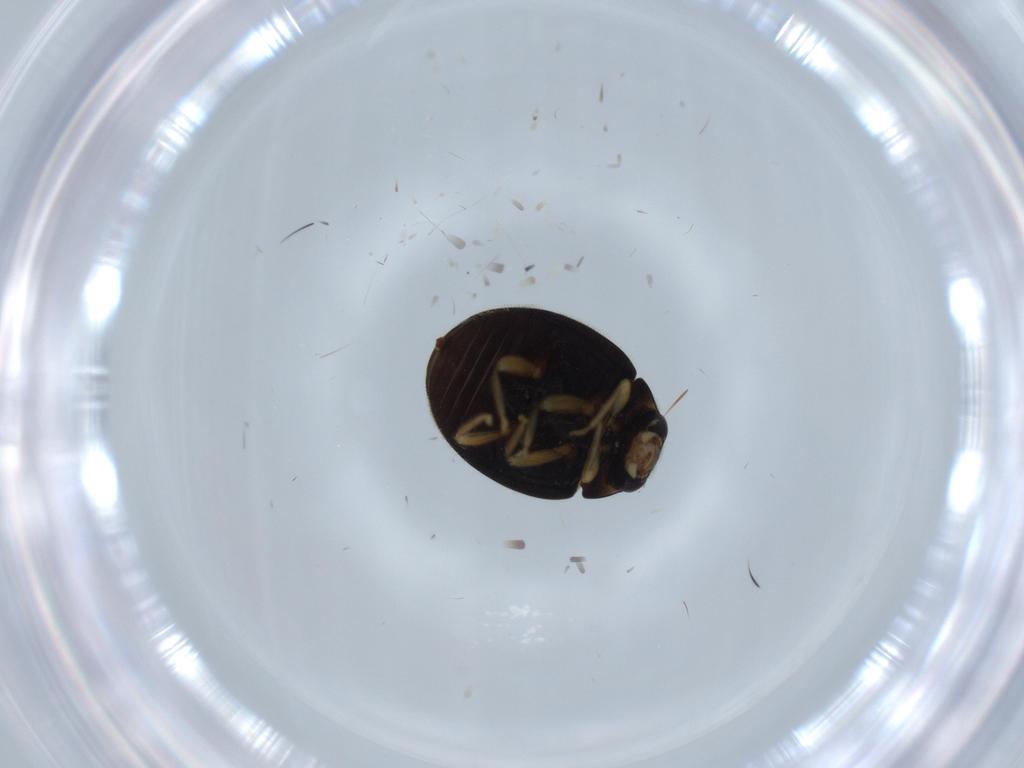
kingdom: Animalia
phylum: Arthropoda
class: Insecta
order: Coleoptera
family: Coccinellidae
